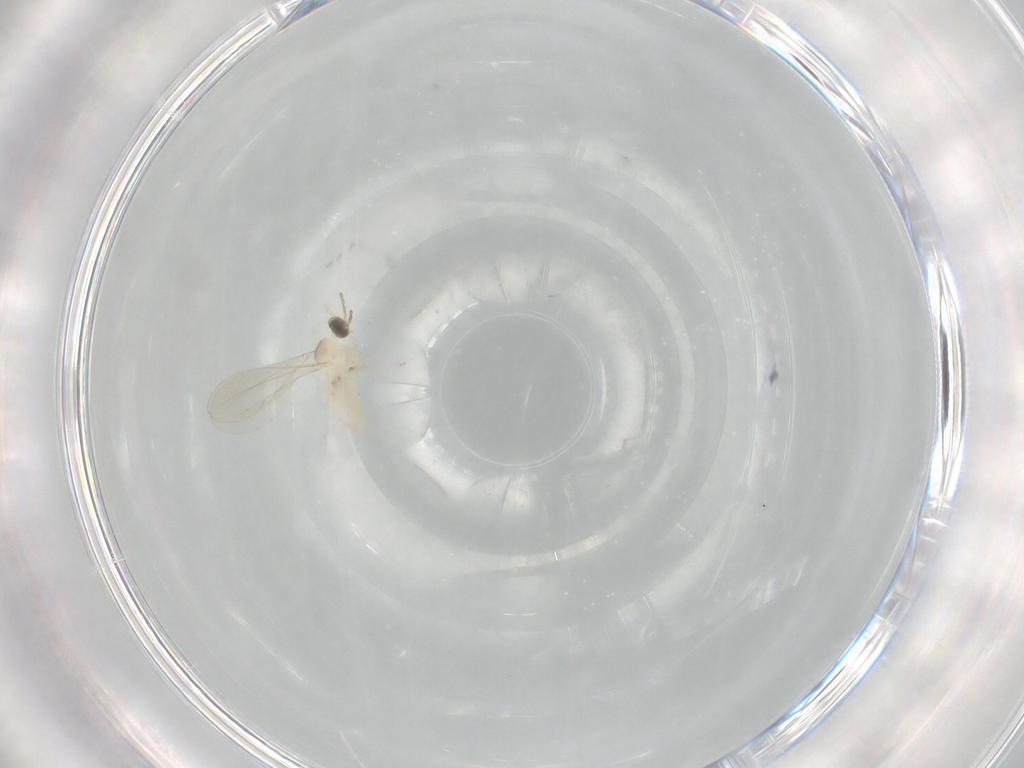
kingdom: Animalia
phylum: Arthropoda
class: Insecta
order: Diptera
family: Cecidomyiidae
